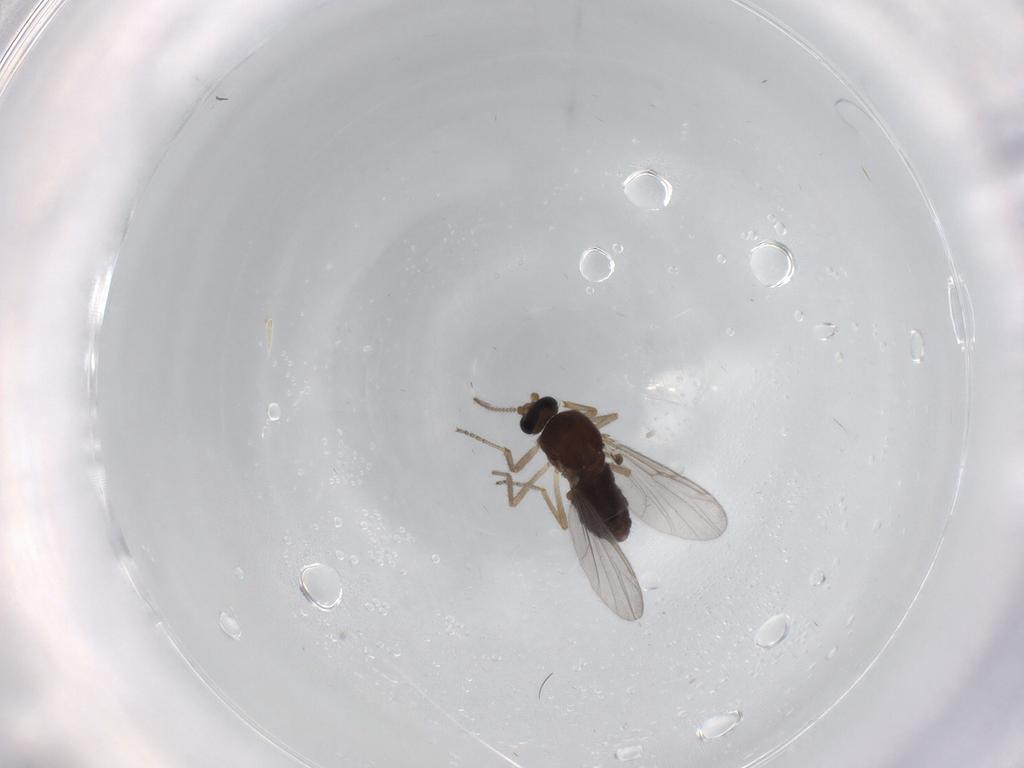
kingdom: Animalia
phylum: Arthropoda
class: Insecta
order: Diptera
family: Ceratopogonidae
